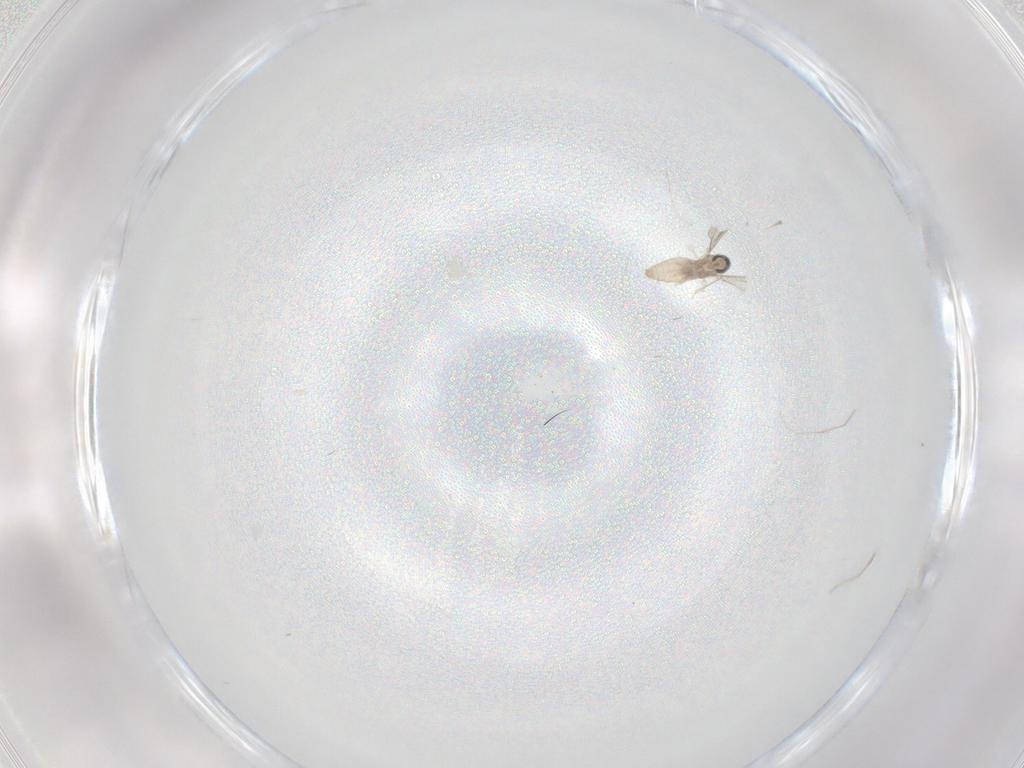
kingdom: Animalia
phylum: Arthropoda
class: Insecta
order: Diptera
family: Cecidomyiidae
